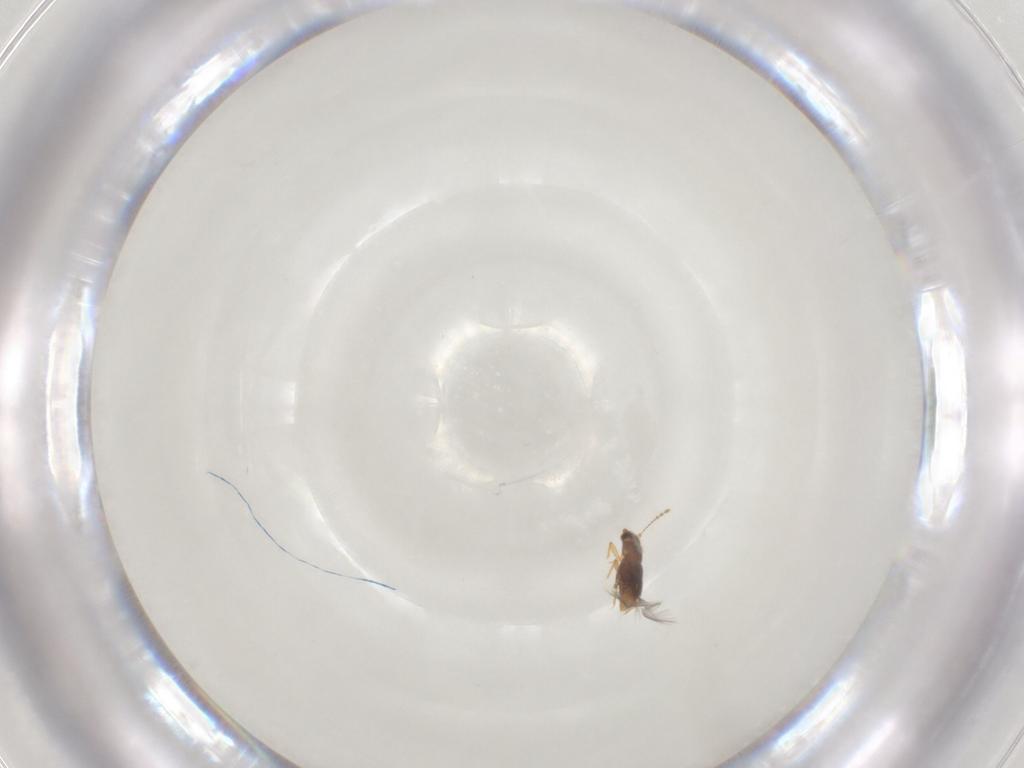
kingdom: Animalia
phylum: Arthropoda
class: Insecta
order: Coleoptera
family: Ptiliidae
